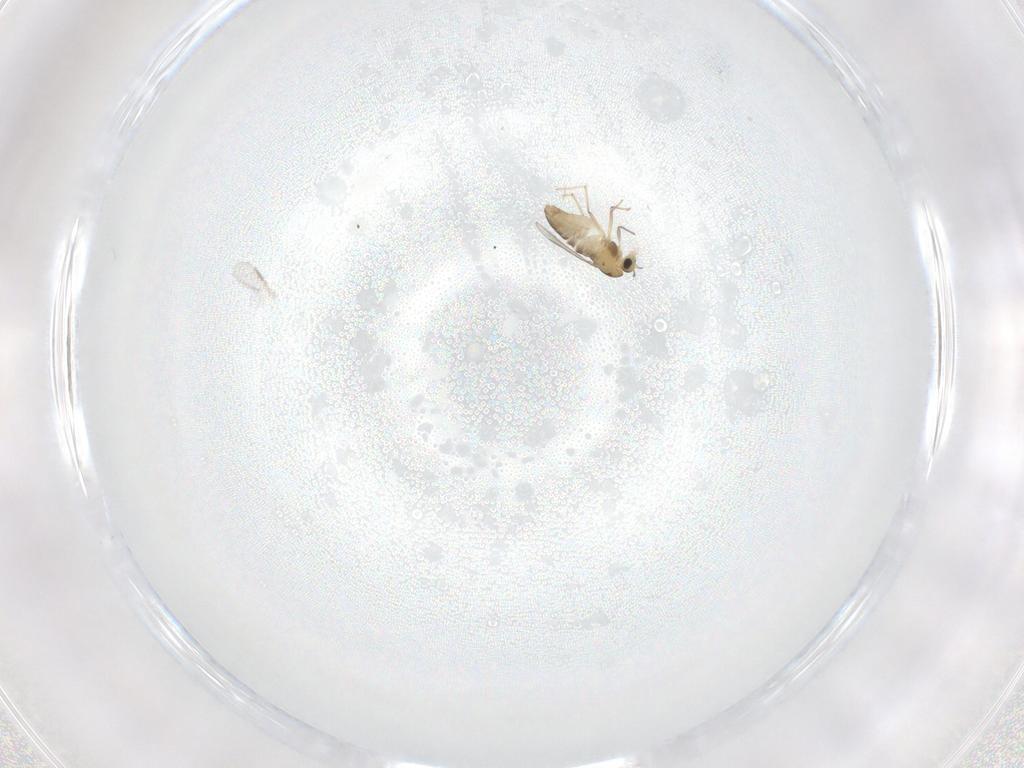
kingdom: Animalia
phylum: Arthropoda
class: Insecta
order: Diptera
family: Chironomidae
